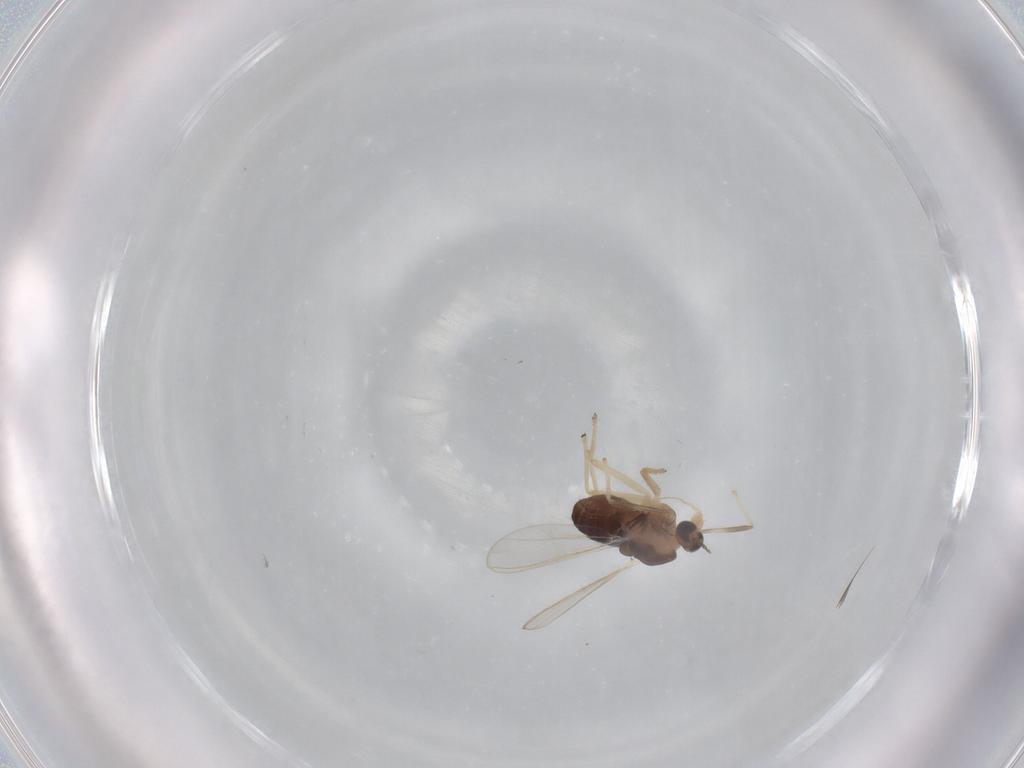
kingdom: Animalia
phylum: Arthropoda
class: Insecta
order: Diptera
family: Chironomidae
